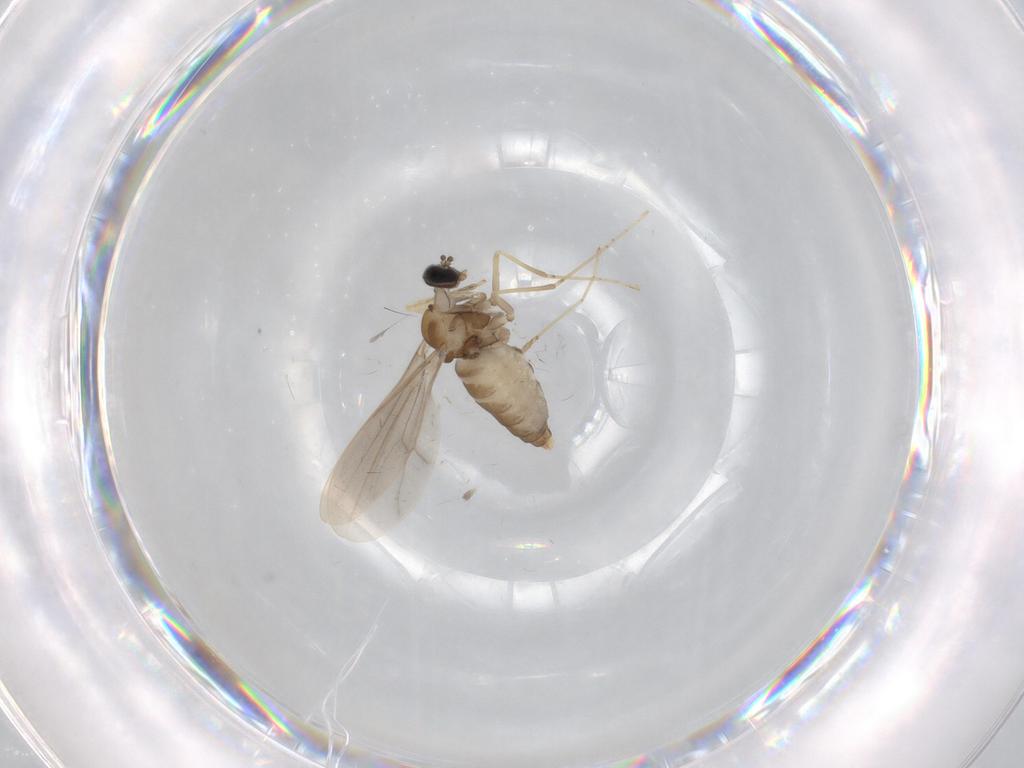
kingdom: Animalia
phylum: Arthropoda
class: Insecta
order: Diptera
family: Cecidomyiidae
